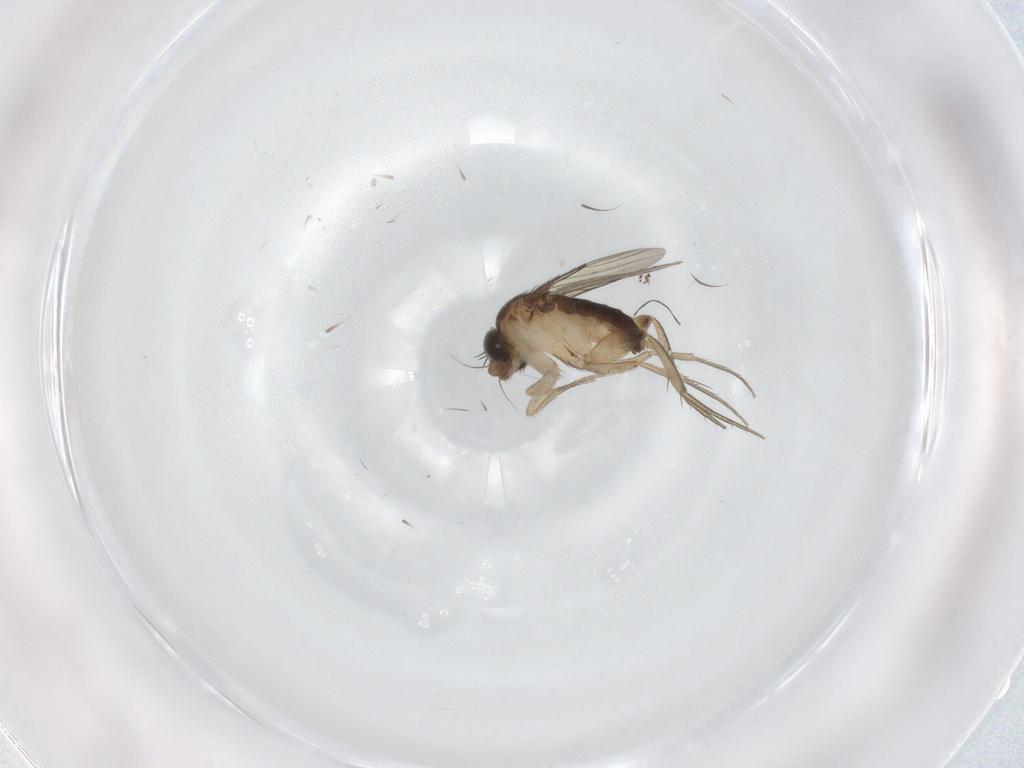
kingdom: Animalia
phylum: Arthropoda
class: Insecta
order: Diptera
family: Phoridae
